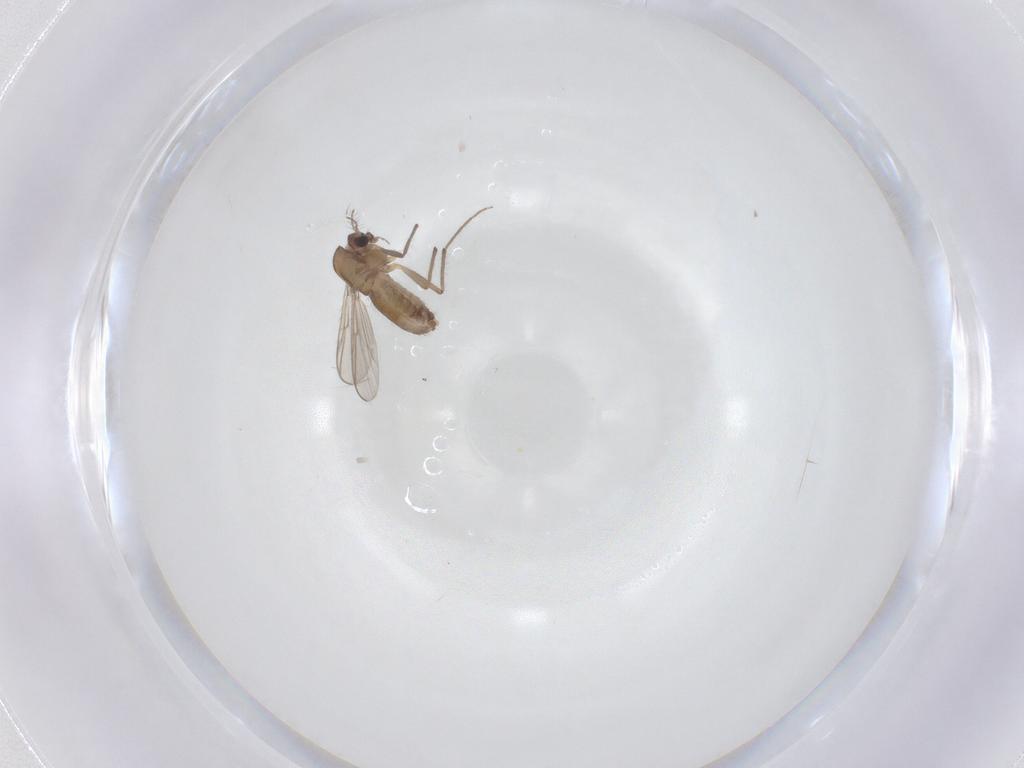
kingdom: Animalia
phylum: Arthropoda
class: Insecta
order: Diptera
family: Chironomidae
